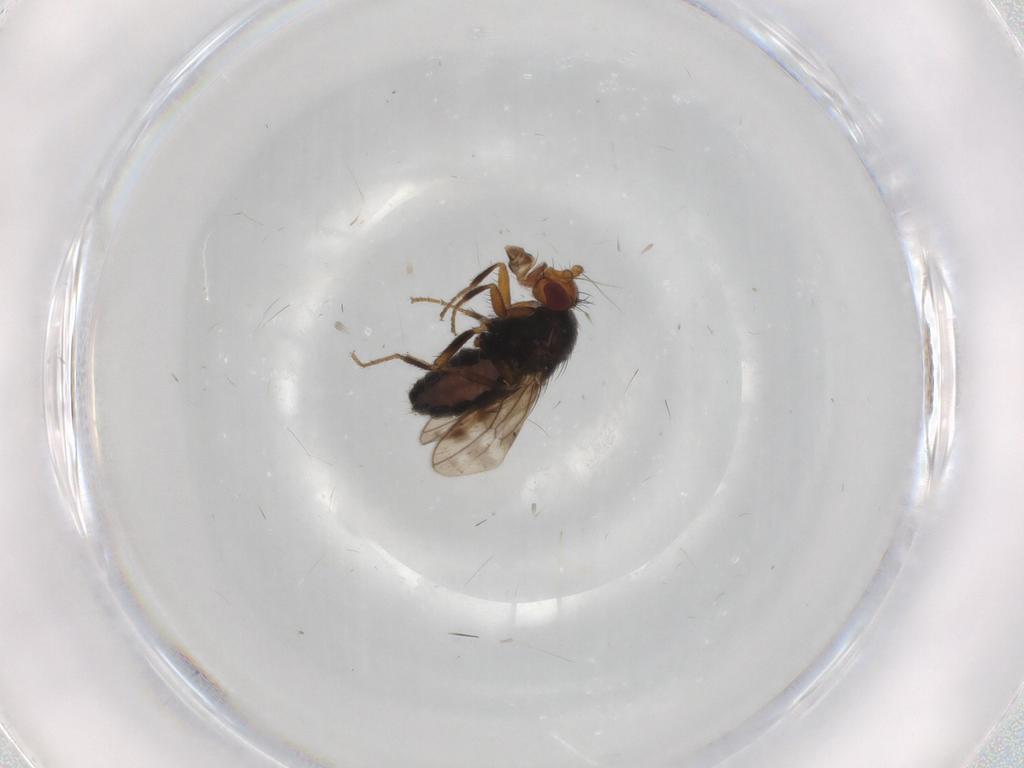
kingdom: Animalia
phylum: Arthropoda
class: Insecta
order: Diptera
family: Sphaeroceridae
